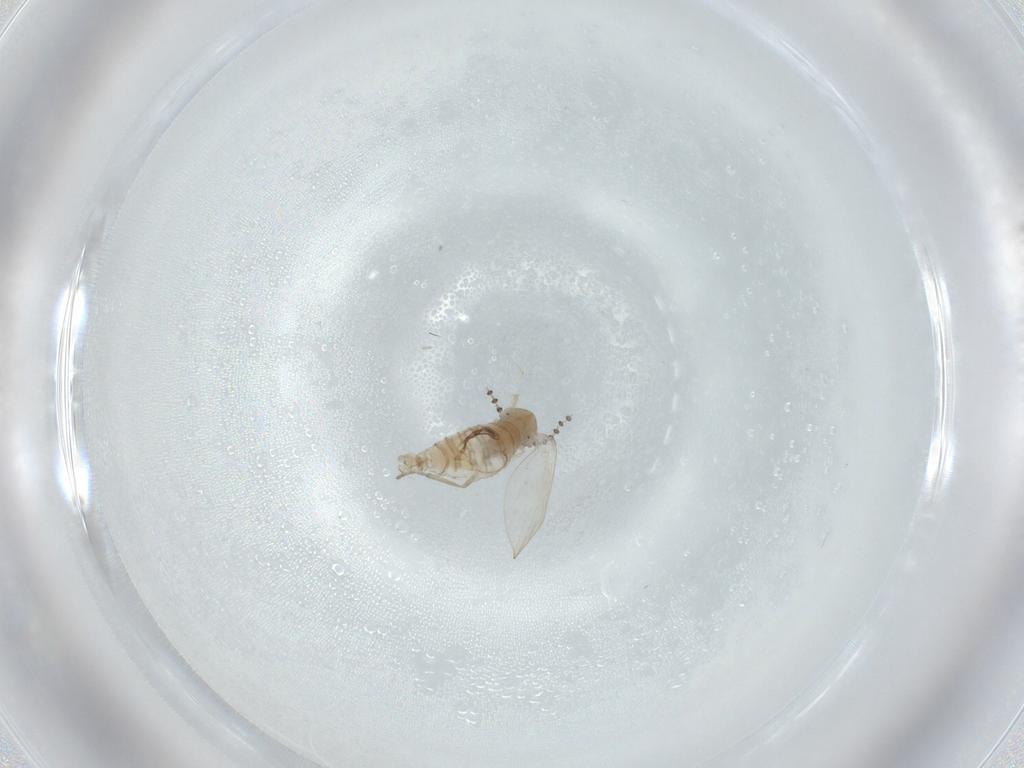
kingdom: Animalia
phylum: Arthropoda
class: Insecta
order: Diptera
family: Psychodidae
